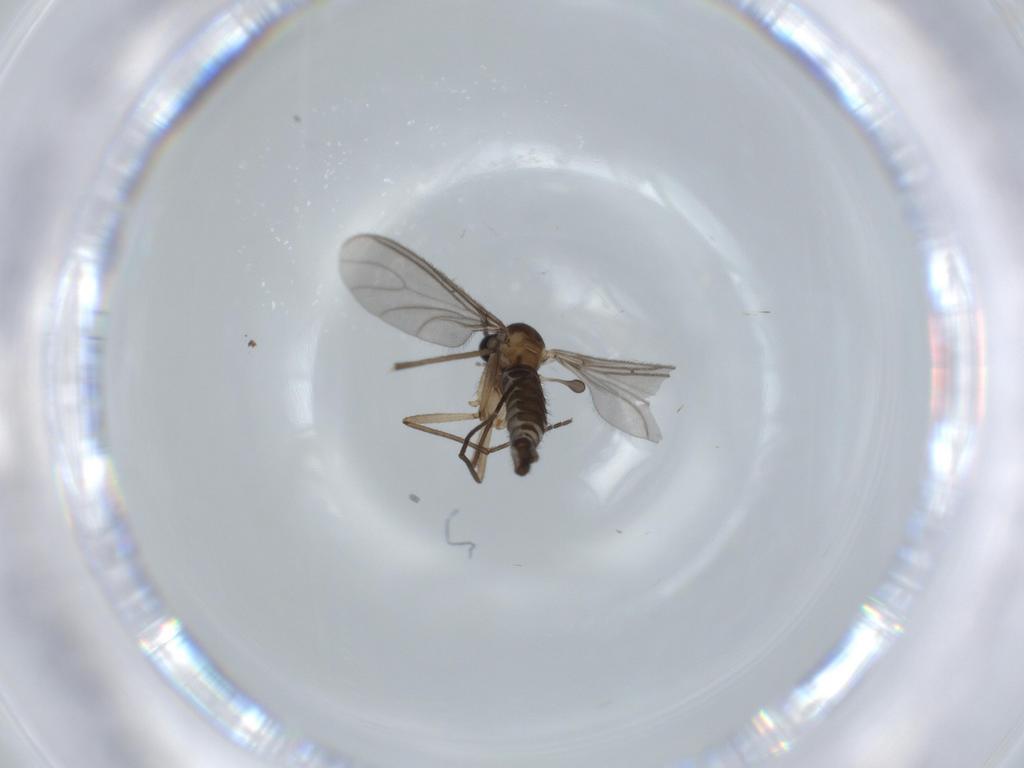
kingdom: Animalia
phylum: Arthropoda
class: Insecta
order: Diptera
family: Sciaridae
